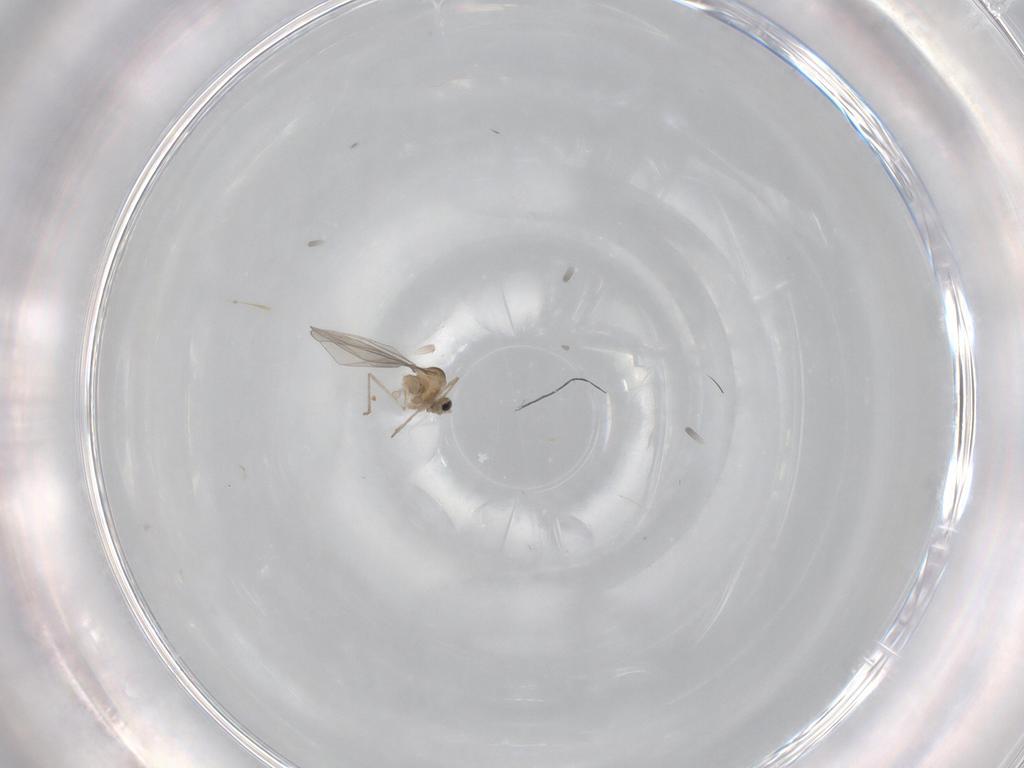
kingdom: Animalia
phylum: Arthropoda
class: Insecta
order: Diptera
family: Cecidomyiidae
